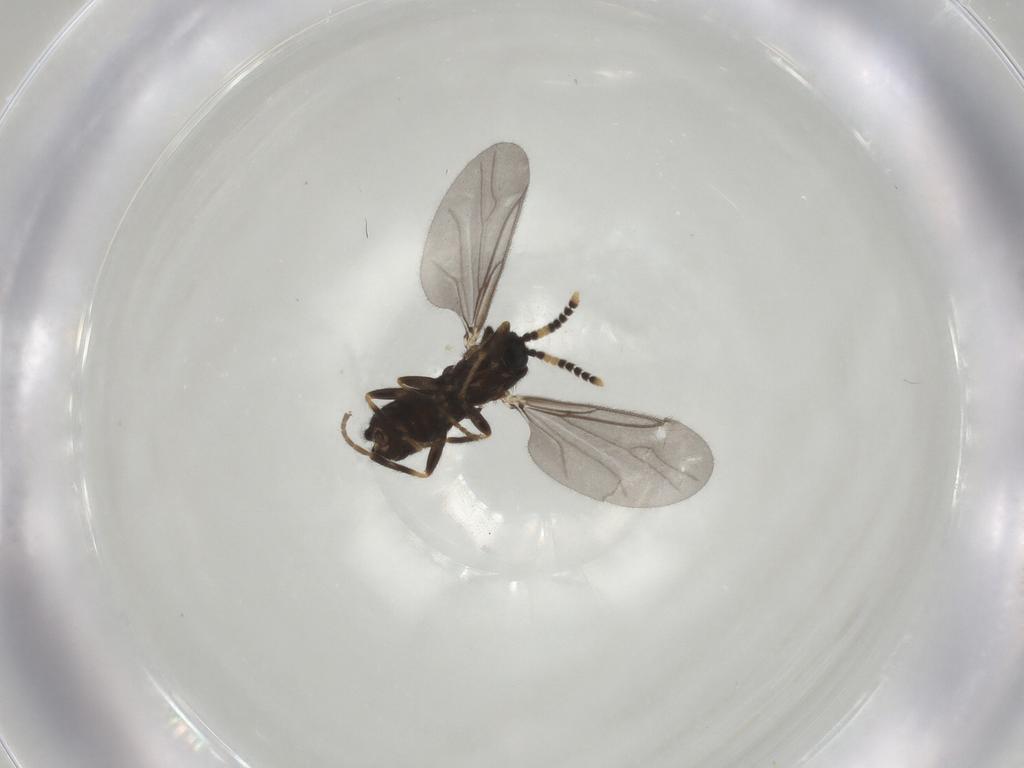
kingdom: Animalia
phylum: Arthropoda
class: Insecta
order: Diptera
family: Scatopsidae
